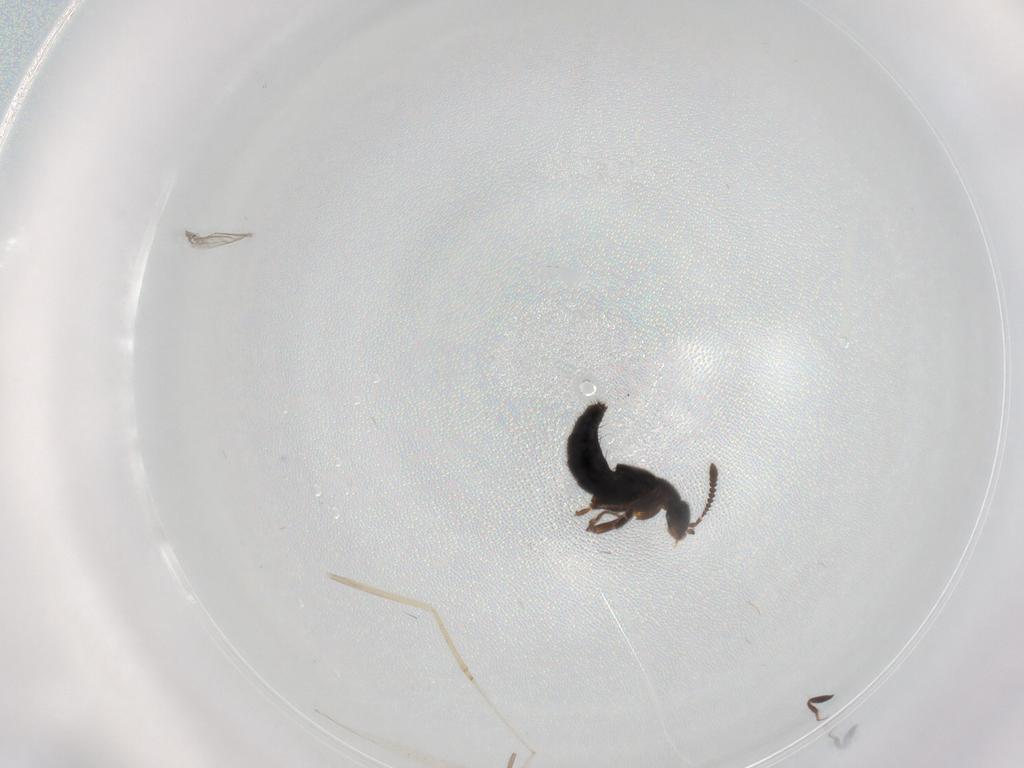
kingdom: Animalia
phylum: Arthropoda
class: Insecta
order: Coleoptera
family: Staphylinidae
